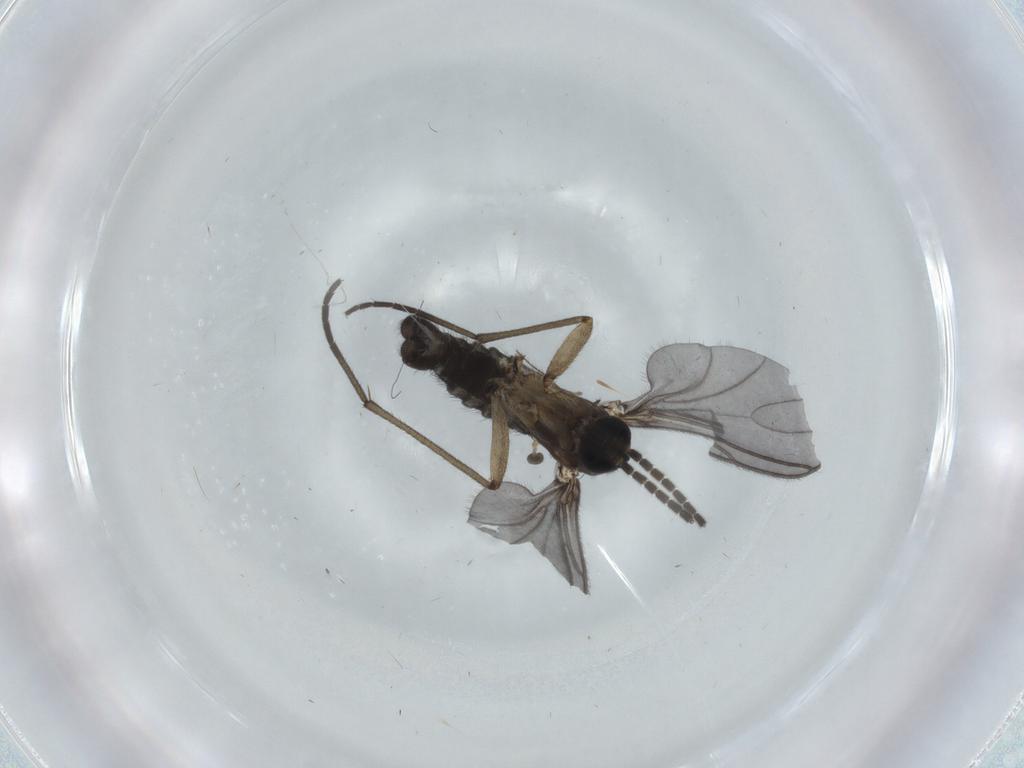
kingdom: Animalia
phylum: Arthropoda
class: Insecta
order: Diptera
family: Sciaridae
